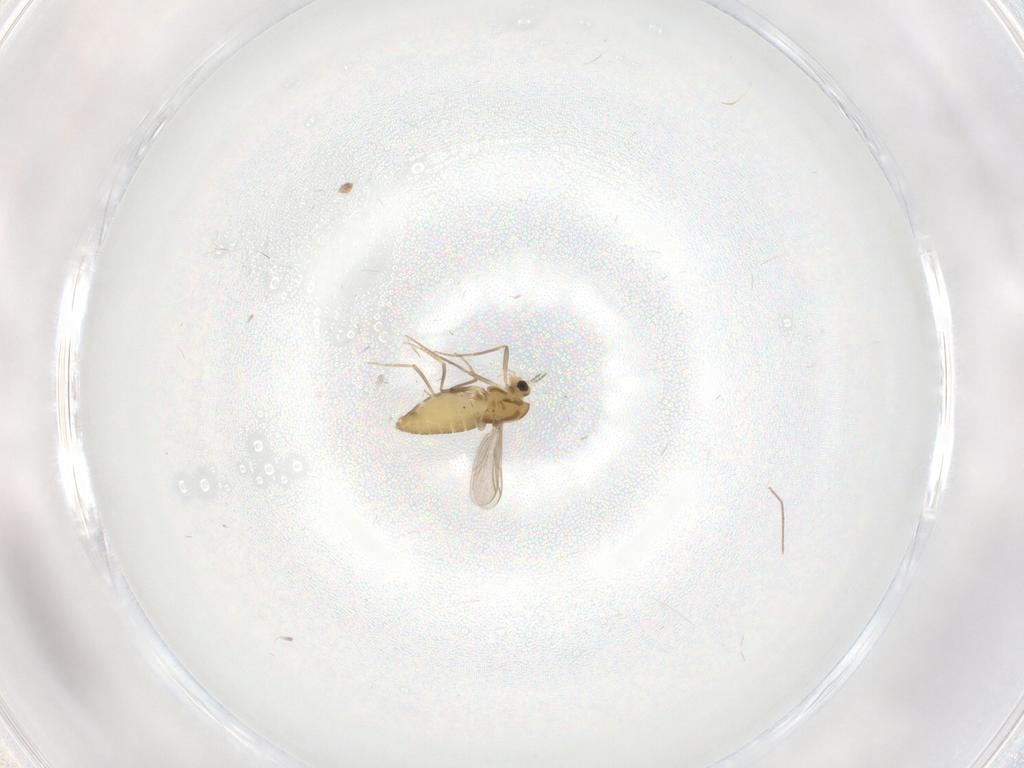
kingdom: Animalia
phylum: Arthropoda
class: Insecta
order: Diptera
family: Chironomidae
